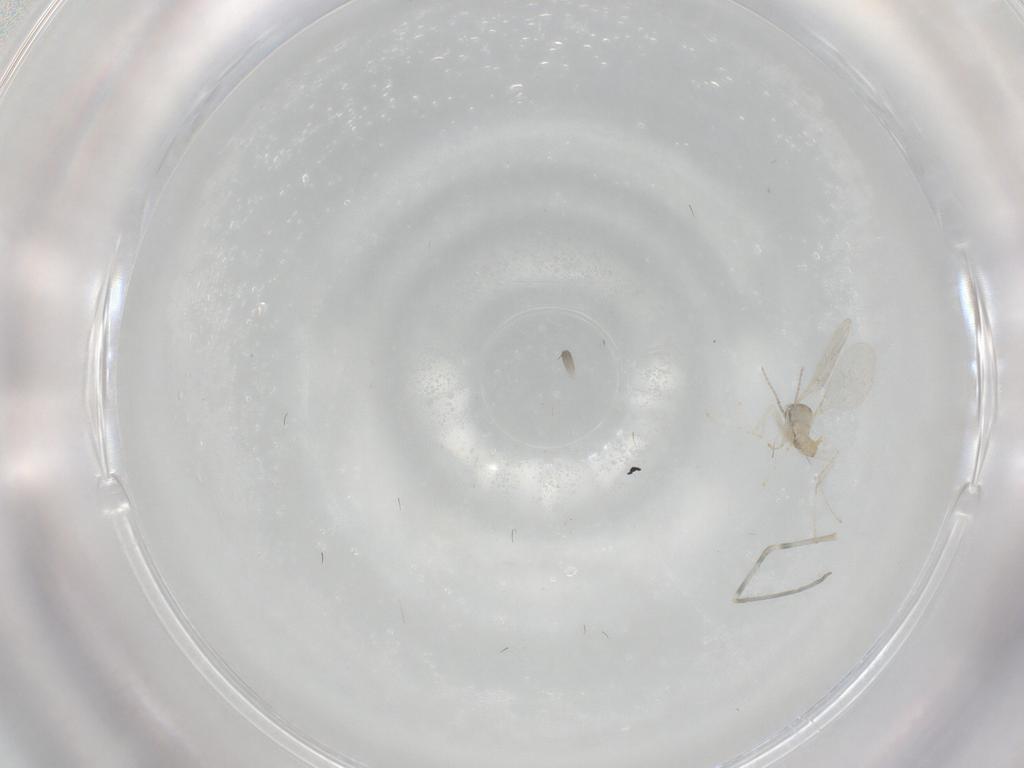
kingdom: Animalia
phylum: Arthropoda
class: Insecta
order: Diptera
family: Cecidomyiidae
